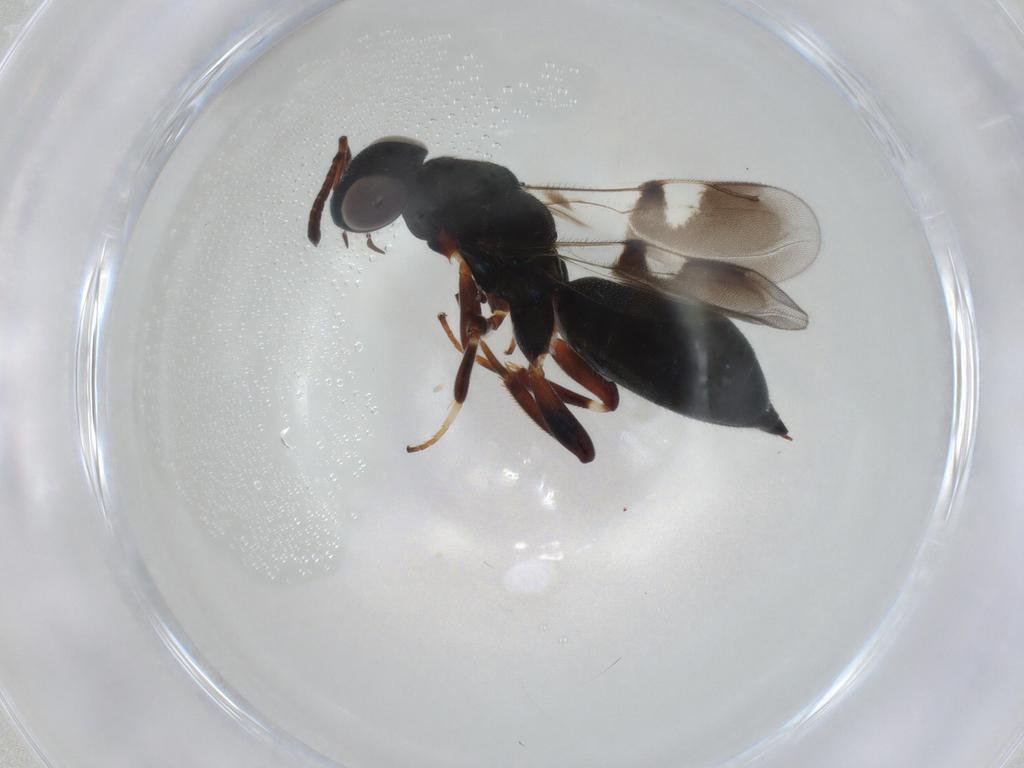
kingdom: Animalia
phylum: Arthropoda
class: Insecta
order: Hymenoptera
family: Cleonyminae
